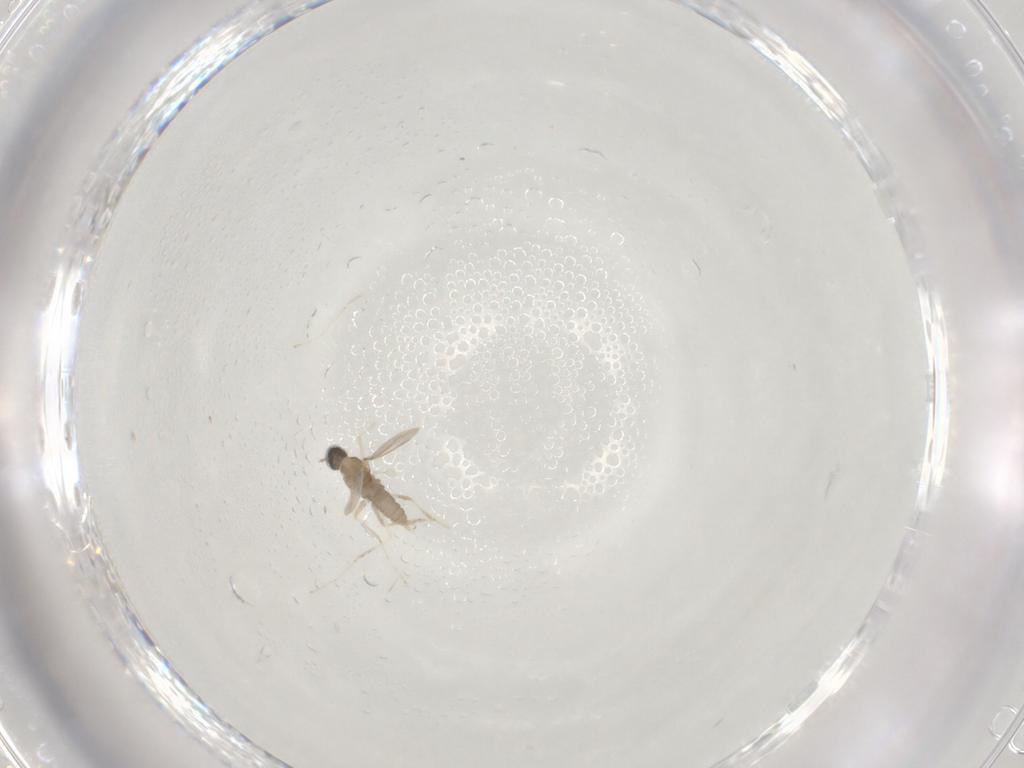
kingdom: Animalia
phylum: Arthropoda
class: Insecta
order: Diptera
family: Cecidomyiidae
